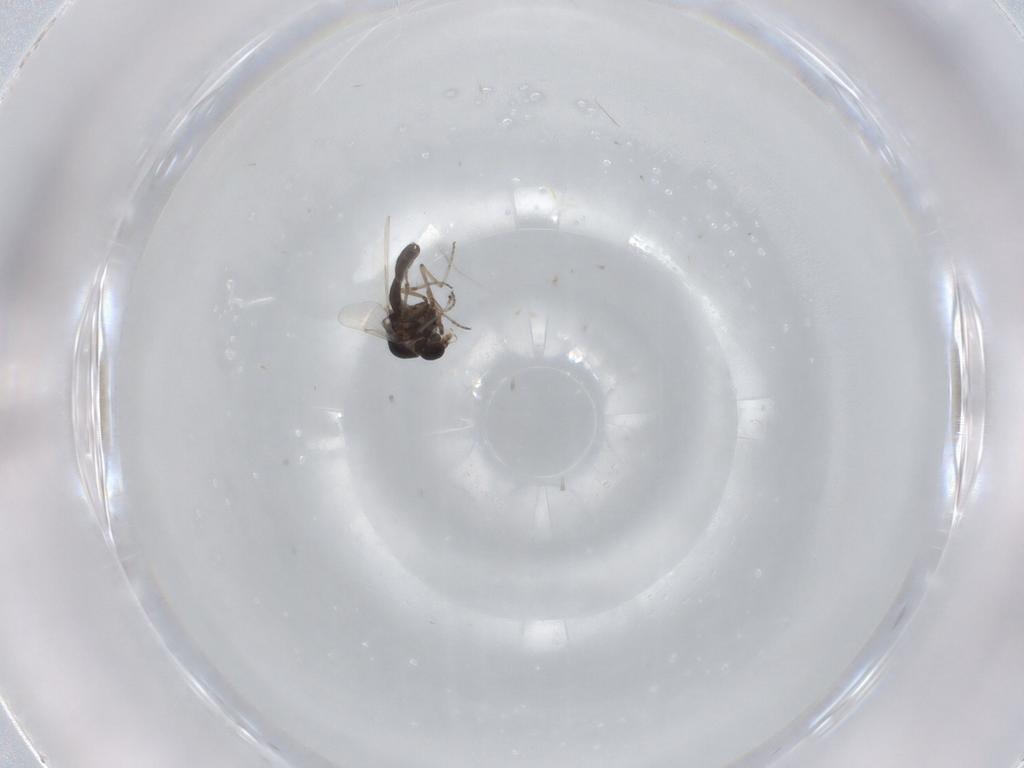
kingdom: Animalia
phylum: Arthropoda
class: Insecta
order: Diptera
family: Ceratopogonidae
